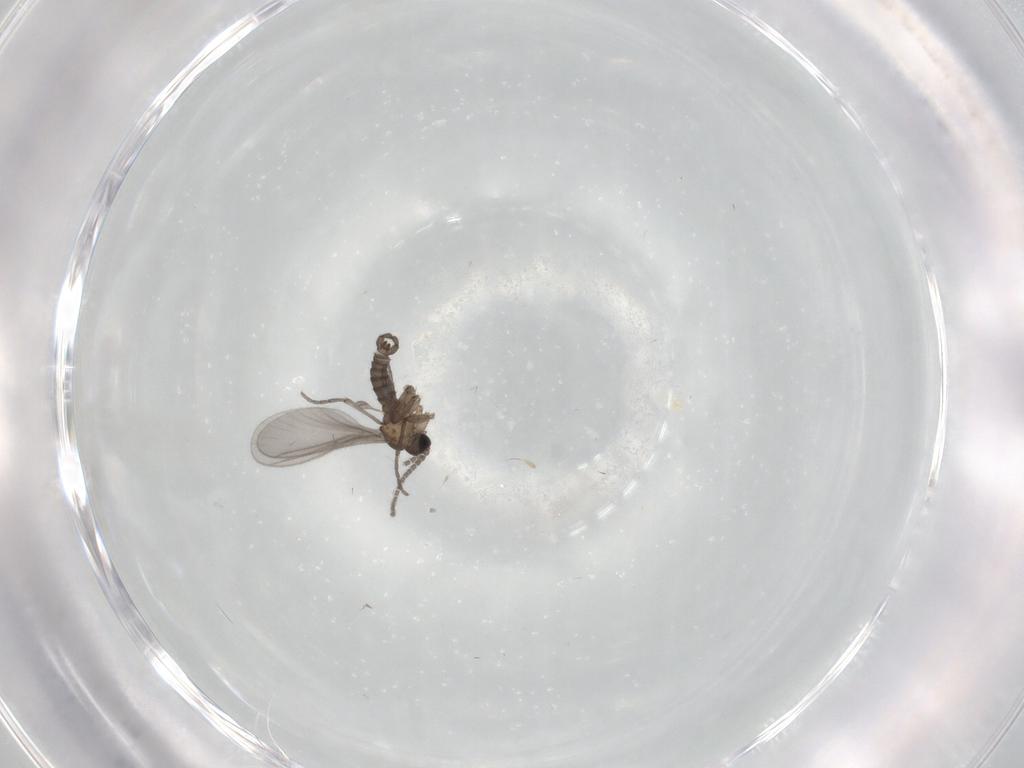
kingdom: Animalia
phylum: Arthropoda
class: Insecta
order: Diptera
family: Sciaridae
